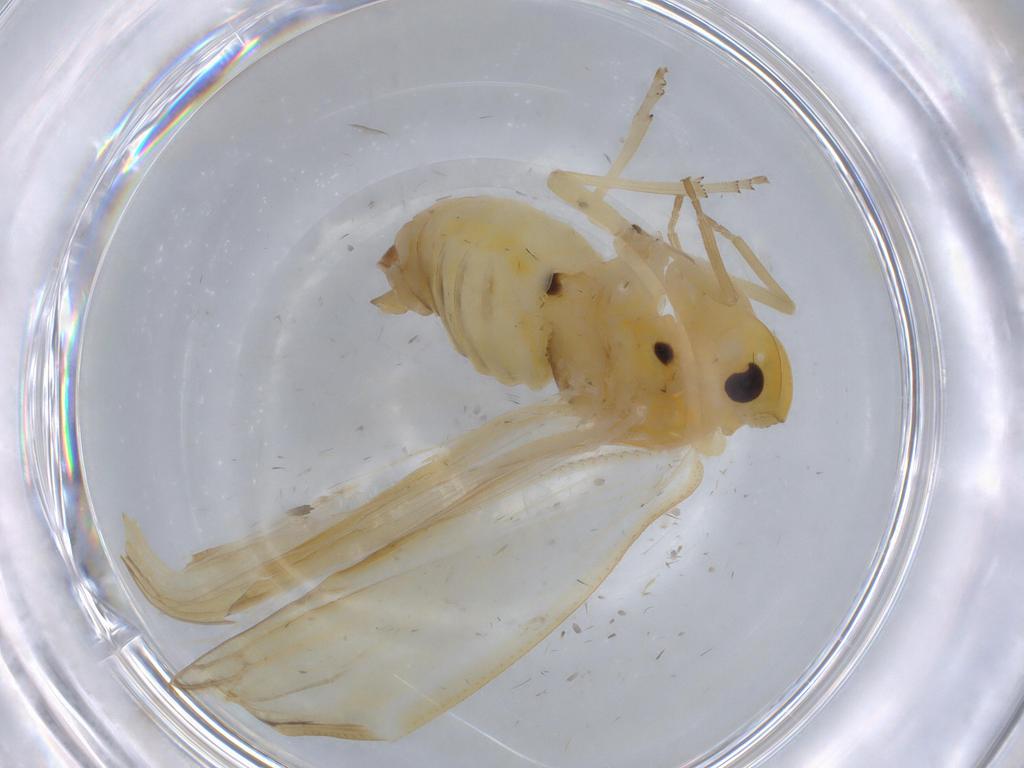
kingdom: Animalia
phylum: Arthropoda
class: Insecta
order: Hemiptera
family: Derbidae
